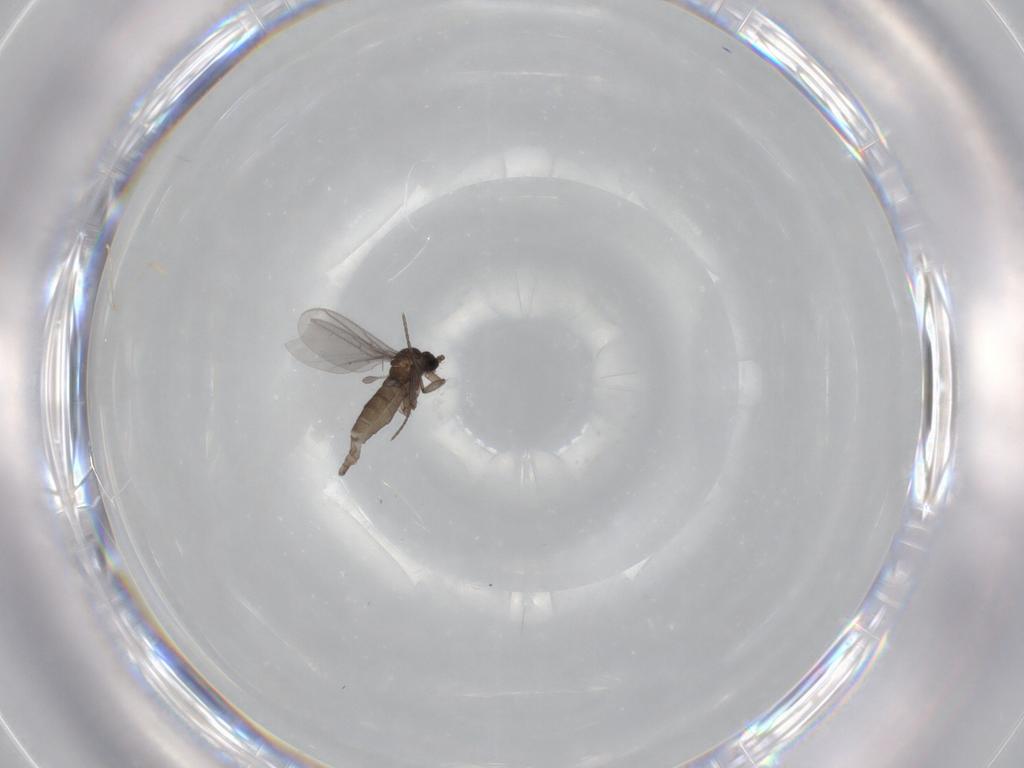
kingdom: Animalia
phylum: Arthropoda
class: Insecta
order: Diptera
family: Sciaridae
